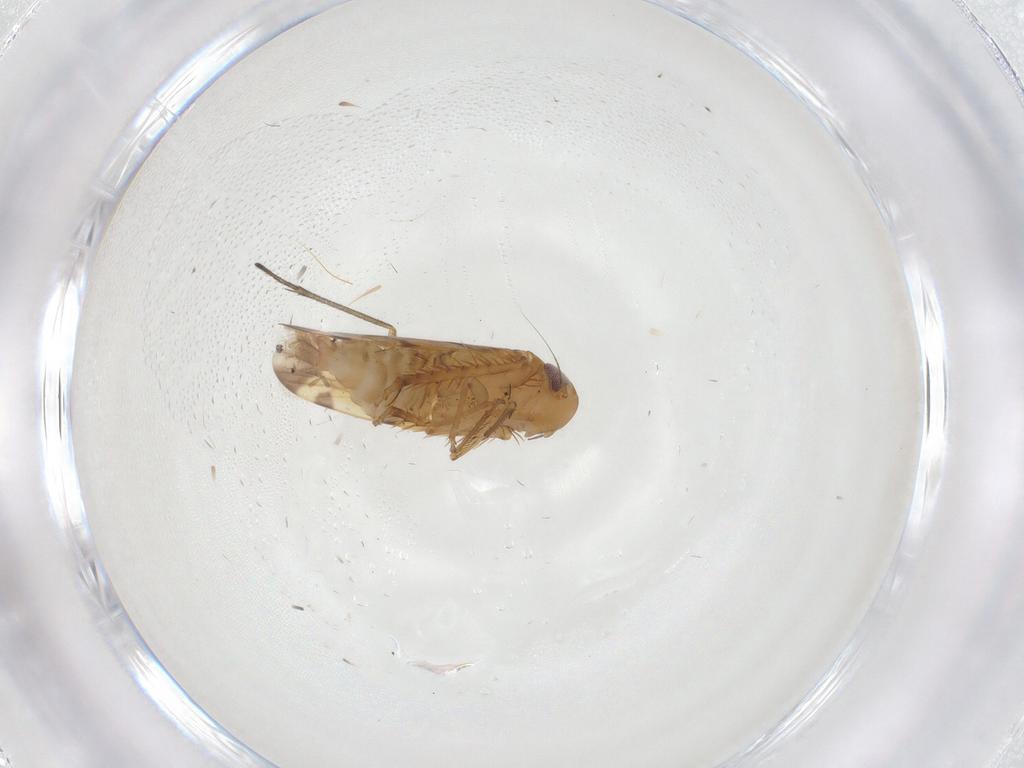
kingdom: Animalia
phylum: Arthropoda
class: Insecta
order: Hemiptera
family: Cicadellidae
